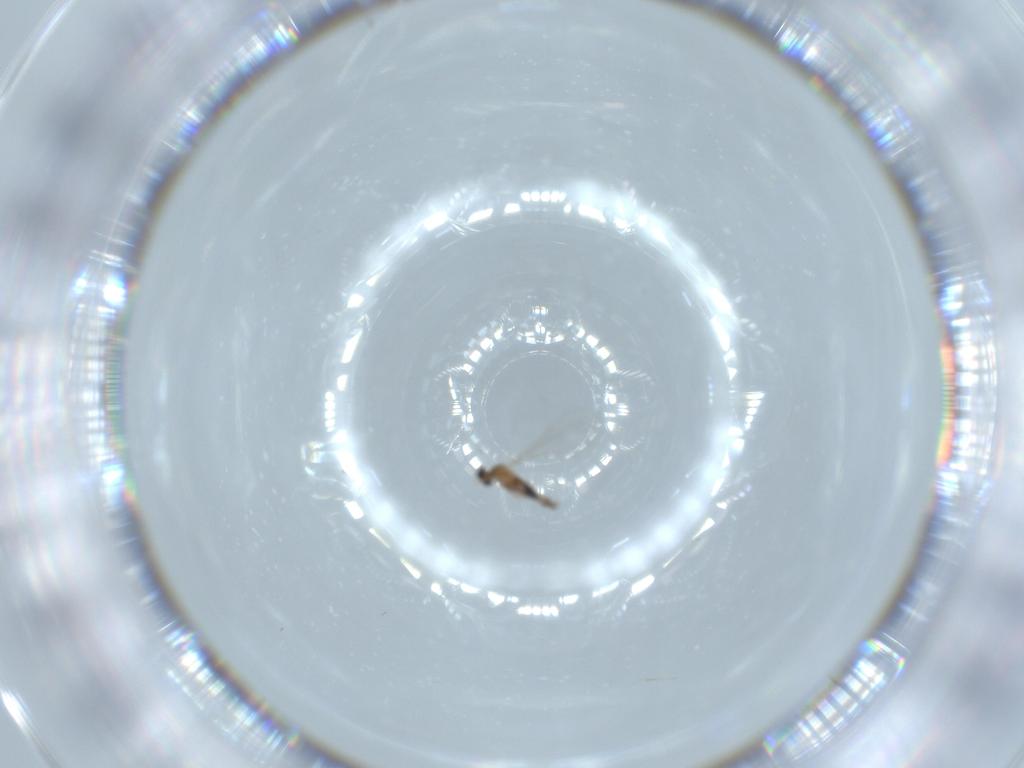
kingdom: Animalia
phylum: Arthropoda
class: Insecta
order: Diptera
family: Cecidomyiidae
